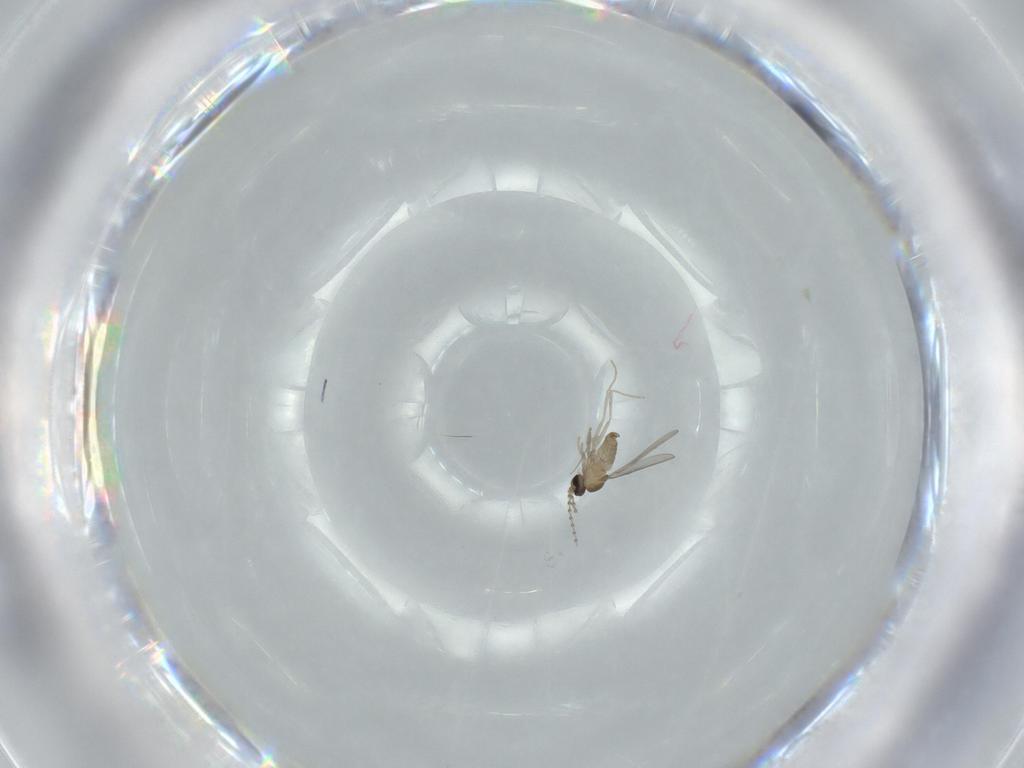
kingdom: Animalia
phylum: Arthropoda
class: Insecta
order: Diptera
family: Cecidomyiidae
